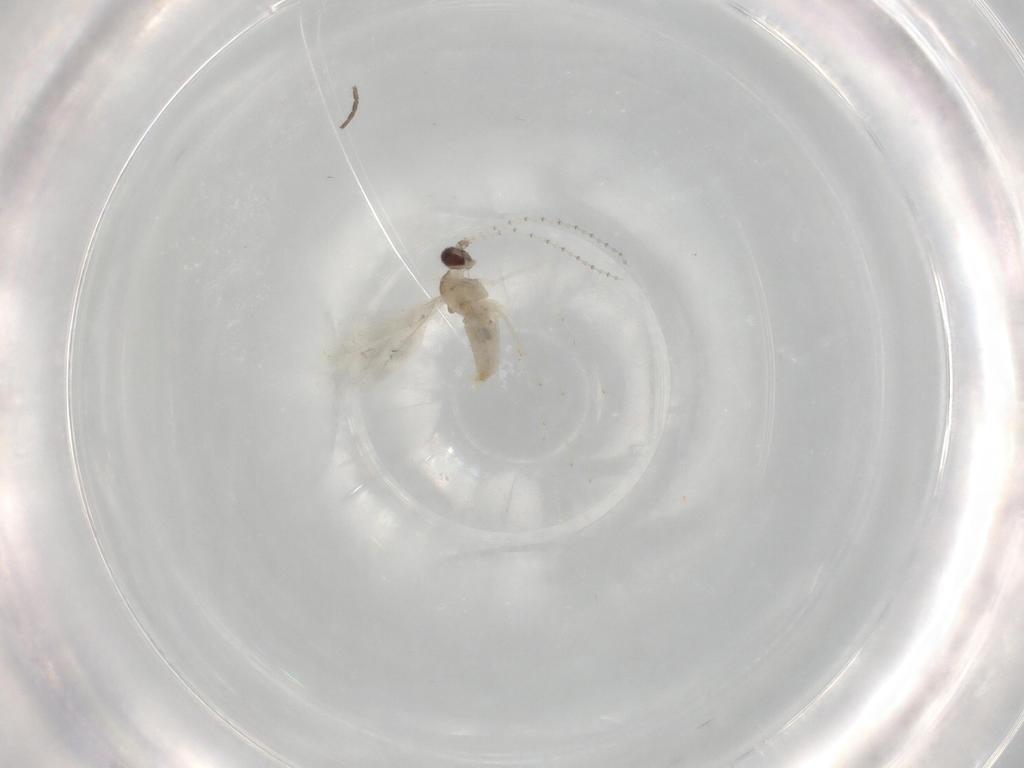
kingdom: Animalia
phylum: Arthropoda
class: Insecta
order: Diptera
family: Cecidomyiidae
